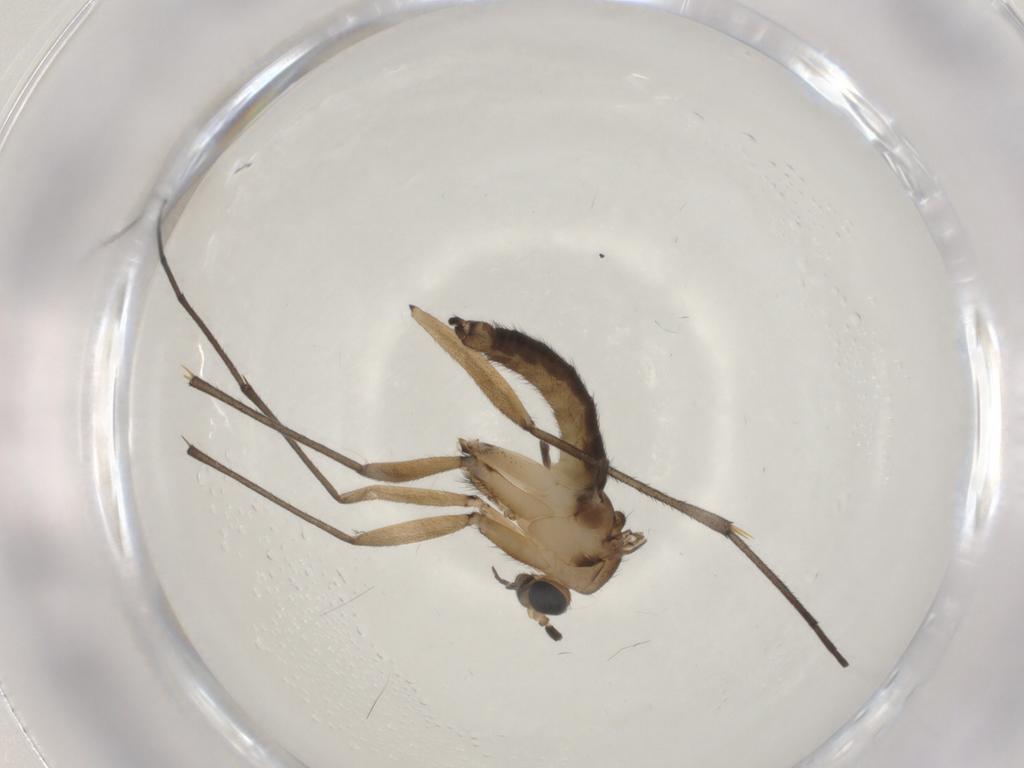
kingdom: Animalia
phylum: Arthropoda
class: Insecta
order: Diptera
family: Sciaridae
